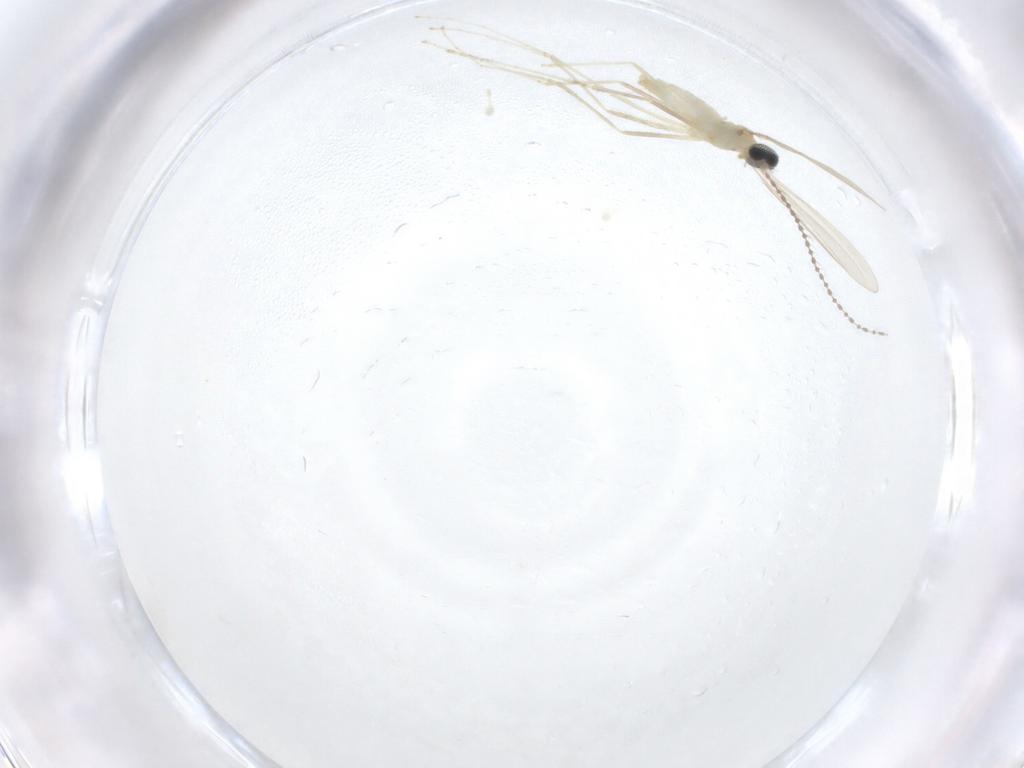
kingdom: Animalia
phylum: Arthropoda
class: Insecta
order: Diptera
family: Cecidomyiidae
